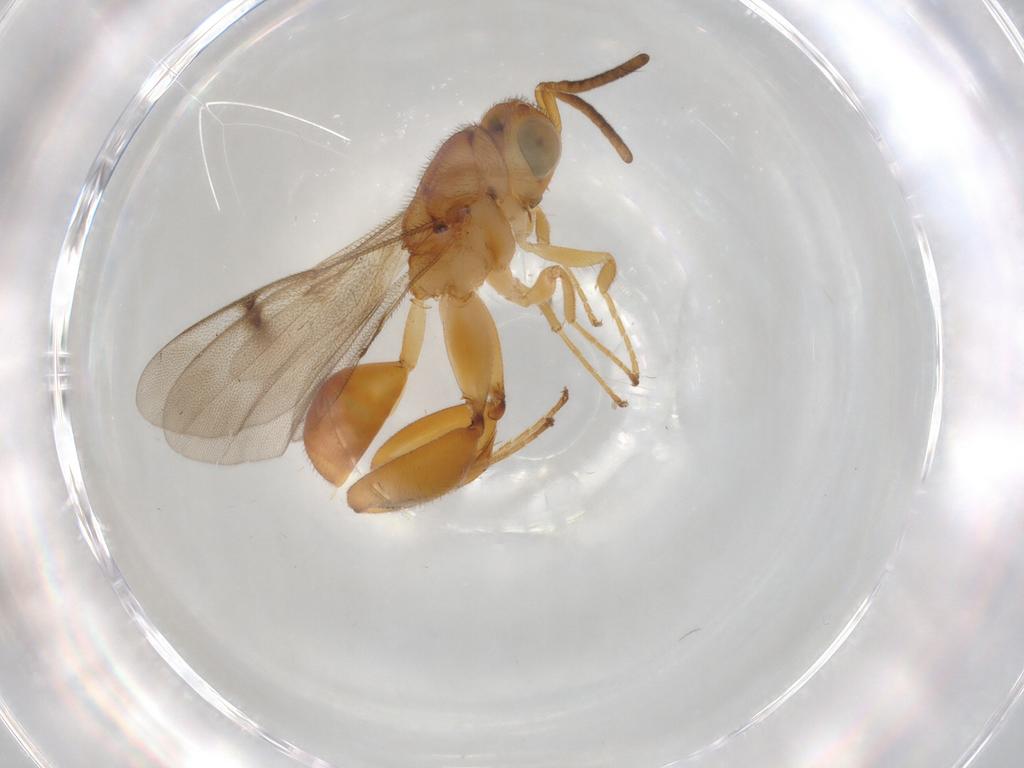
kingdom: Animalia
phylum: Arthropoda
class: Insecta
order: Hymenoptera
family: Chalcididae
